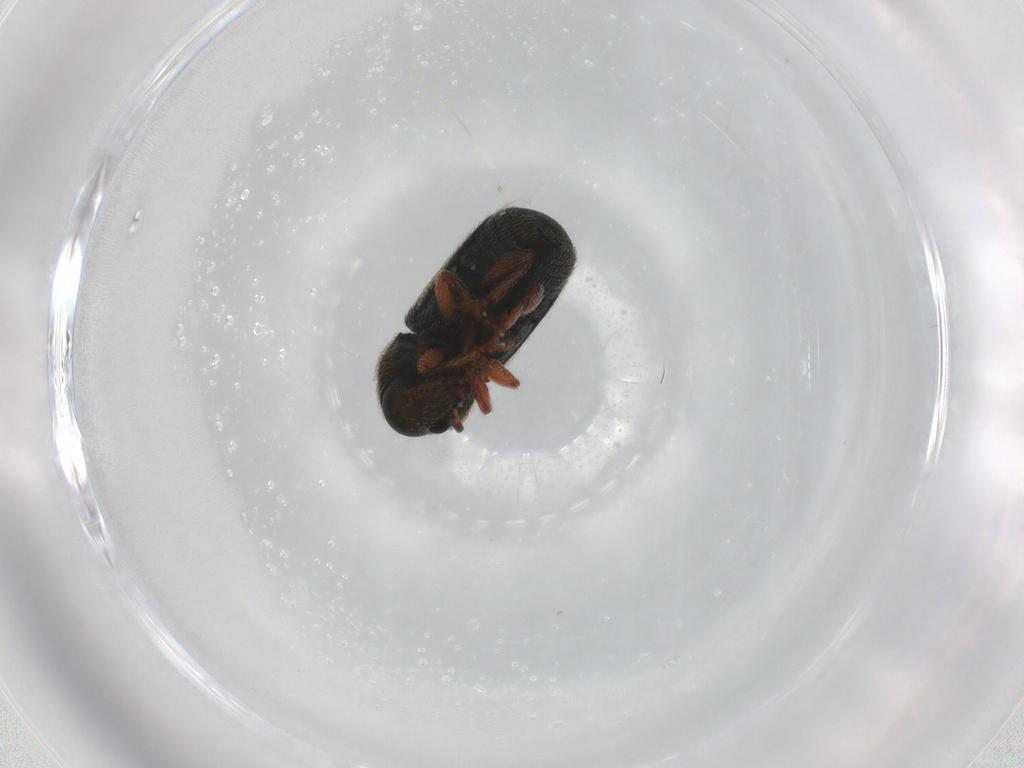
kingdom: Animalia
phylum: Arthropoda
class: Insecta
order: Coleoptera
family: Anthribidae
